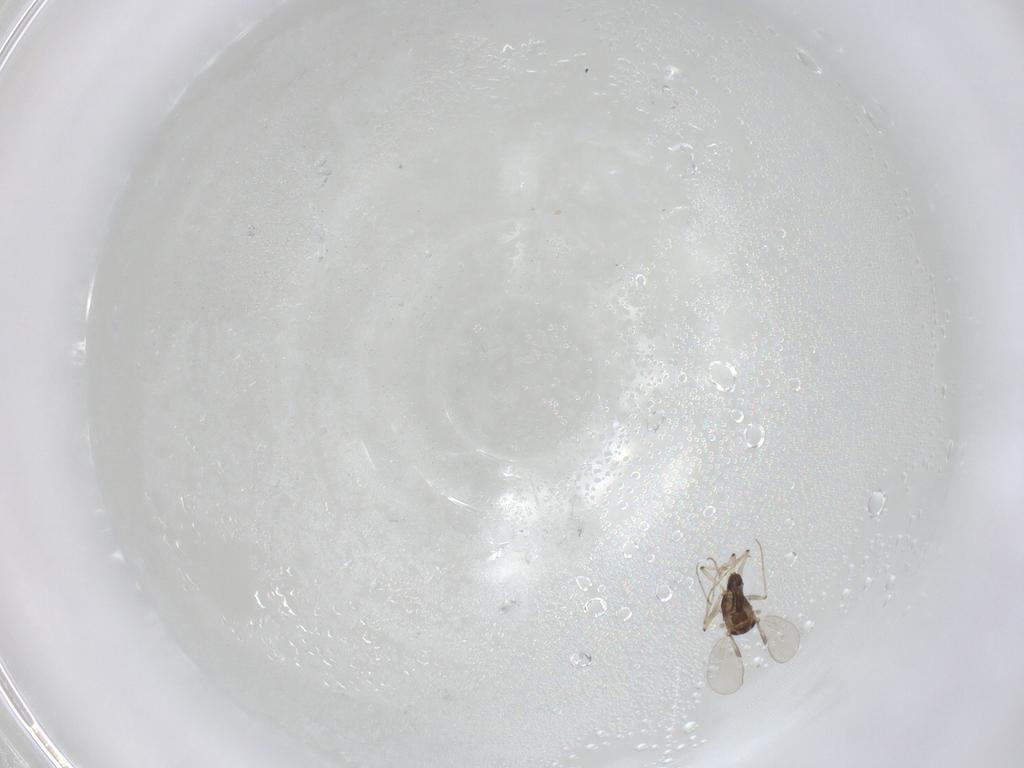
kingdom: Animalia
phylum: Arthropoda
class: Insecta
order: Diptera
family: Chironomidae
